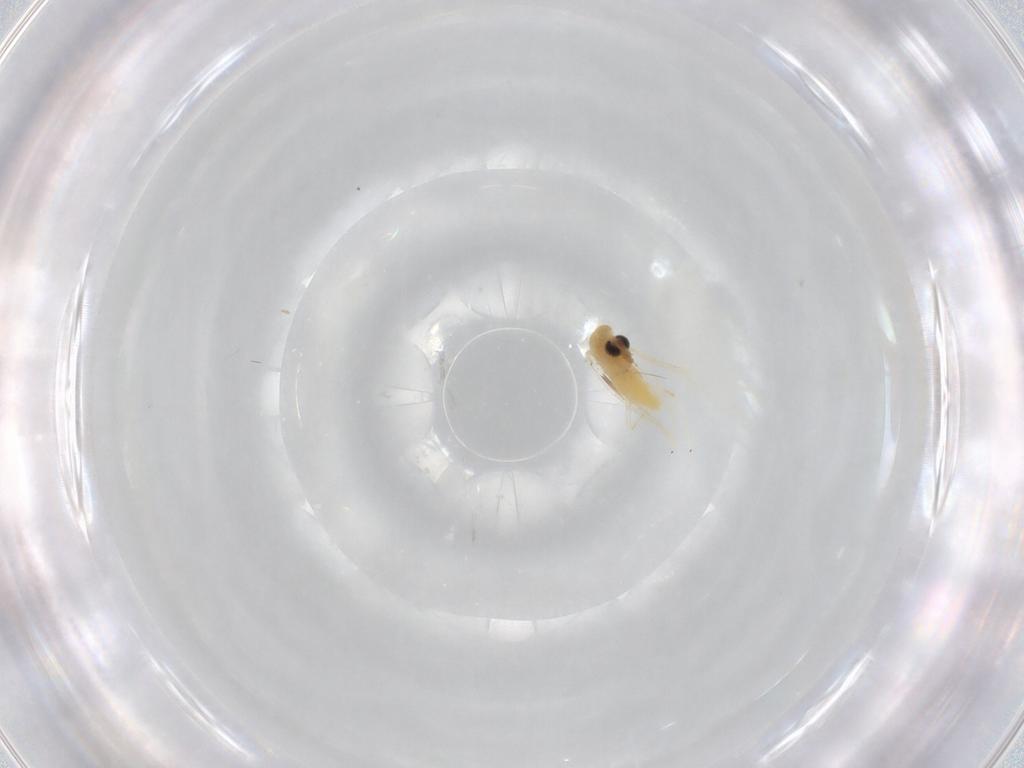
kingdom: Animalia
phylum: Arthropoda
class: Insecta
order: Diptera
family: Chironomidae
